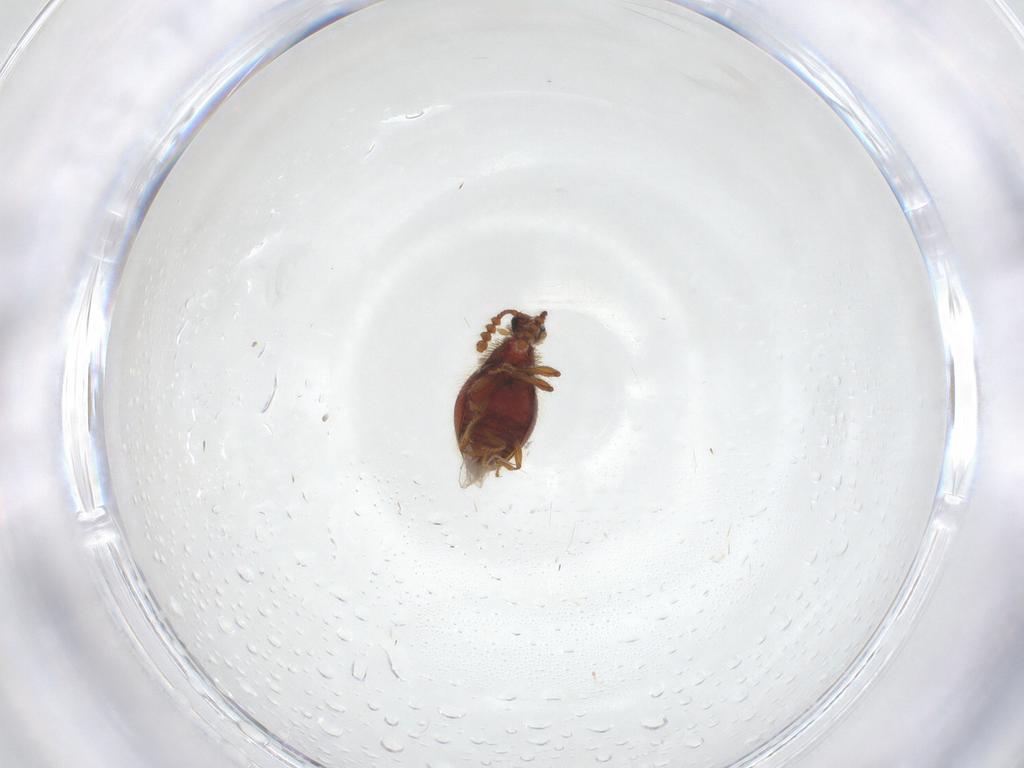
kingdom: Animalia
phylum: Arthropoda
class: Insecta
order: Coleoptera
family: Staphylinidae
